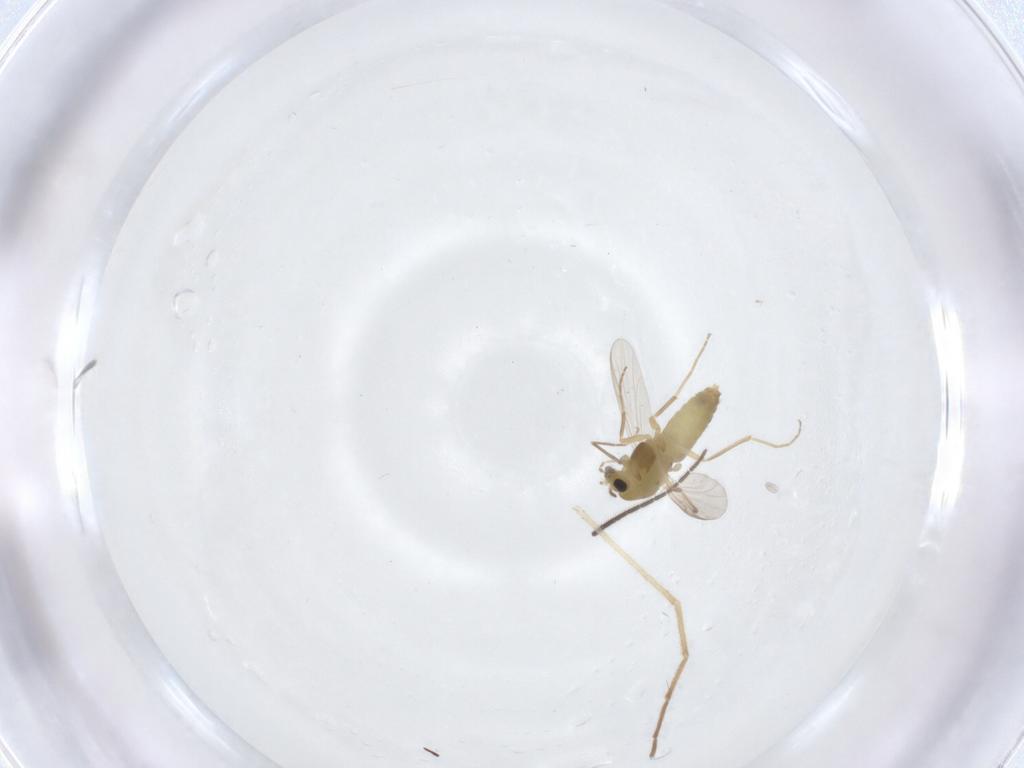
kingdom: Animalia
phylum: Arthropoda
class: Insecta
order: Diptera
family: Chironomidae
